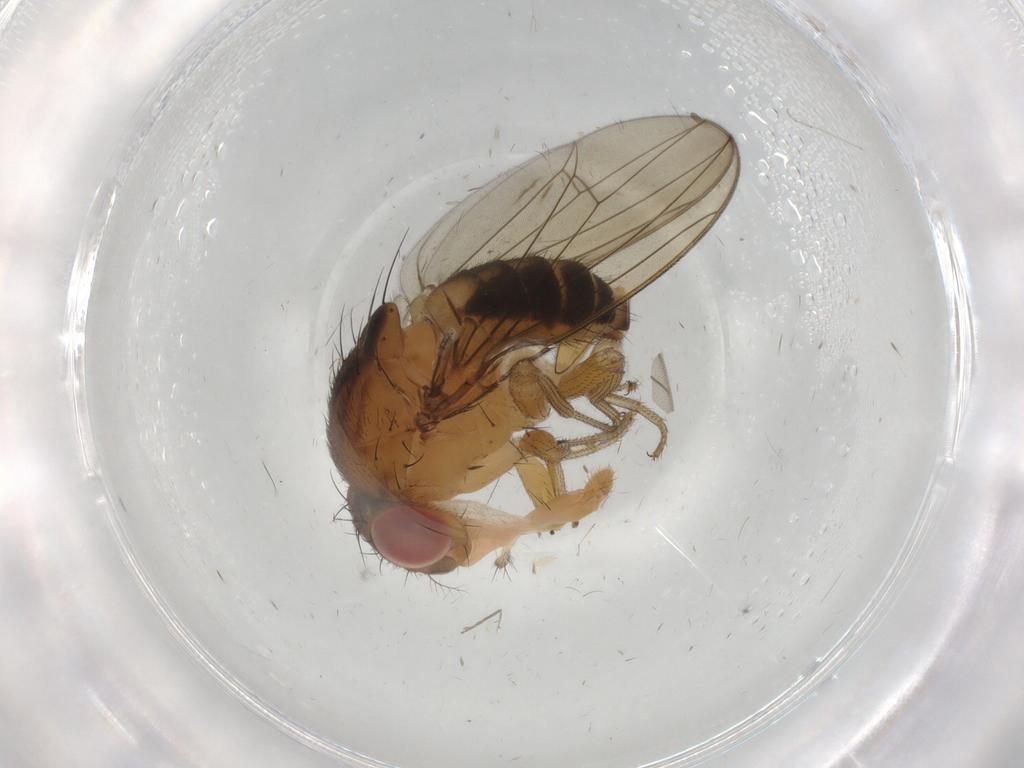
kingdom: Animalia
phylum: Arthropoda
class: Insecta
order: Diptera
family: Drosophilidae
